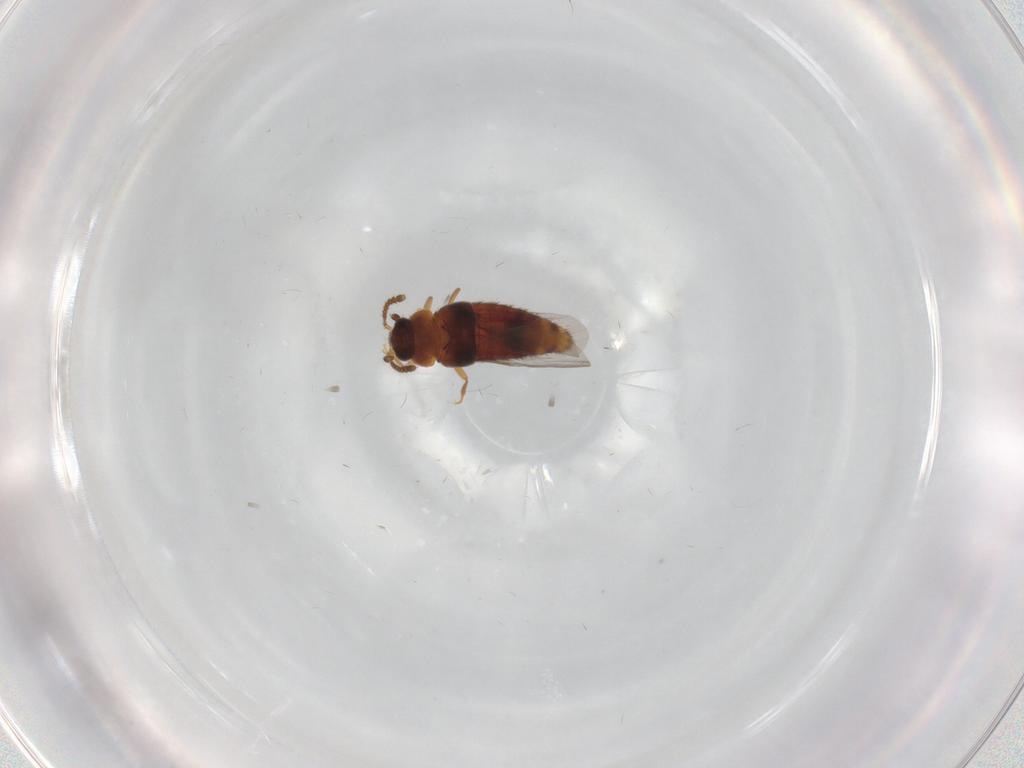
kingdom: Animalia
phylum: Arthropoda
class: Insecta
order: Coleoptera
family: Staphylinidae
